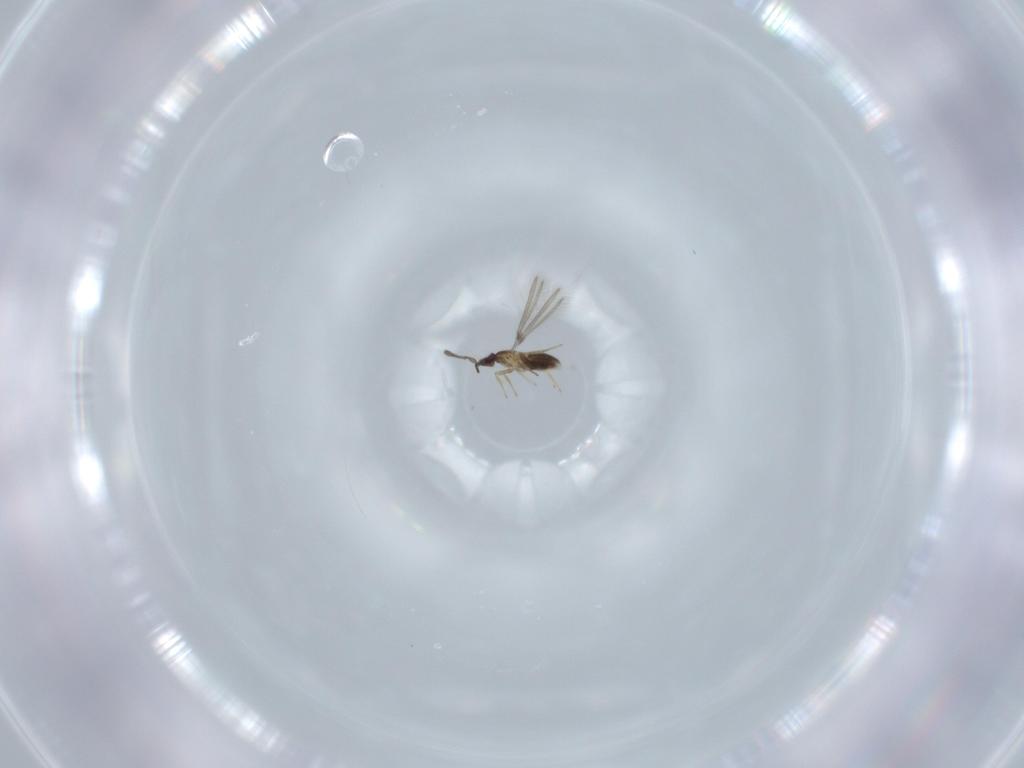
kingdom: Animalia
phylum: Arthropoda
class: Insecta
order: Hymenoptera
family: Mymaridae
